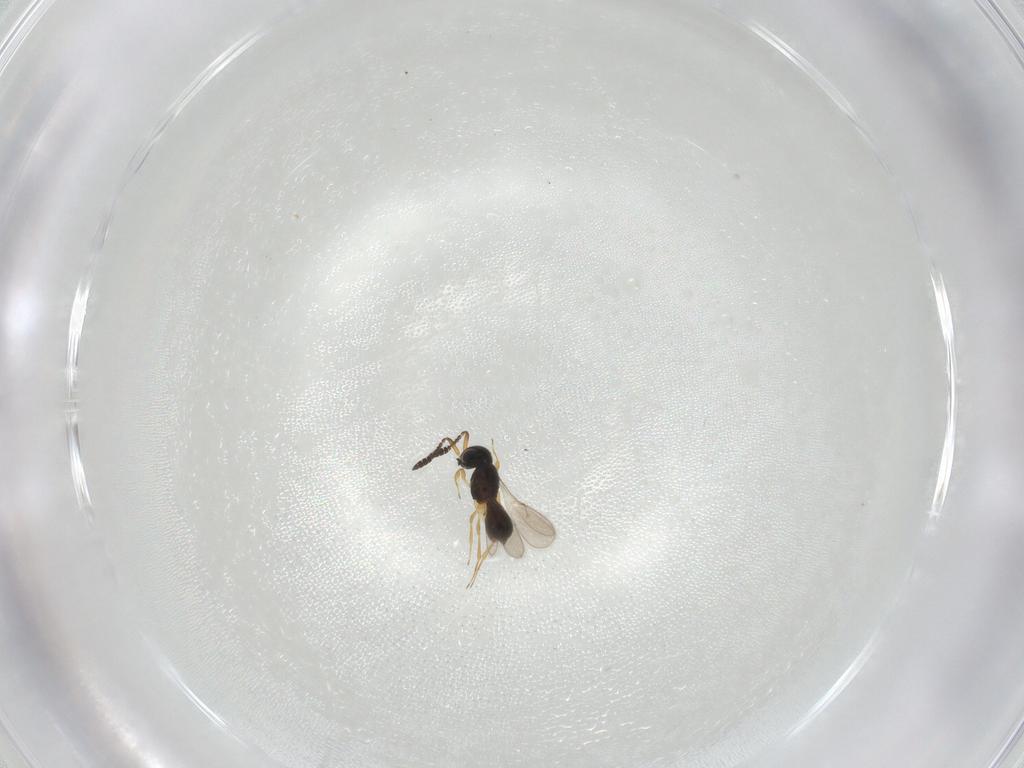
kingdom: Animalia
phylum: Arthropoda
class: Insecta
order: Hymenoptera
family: Scelionidae
